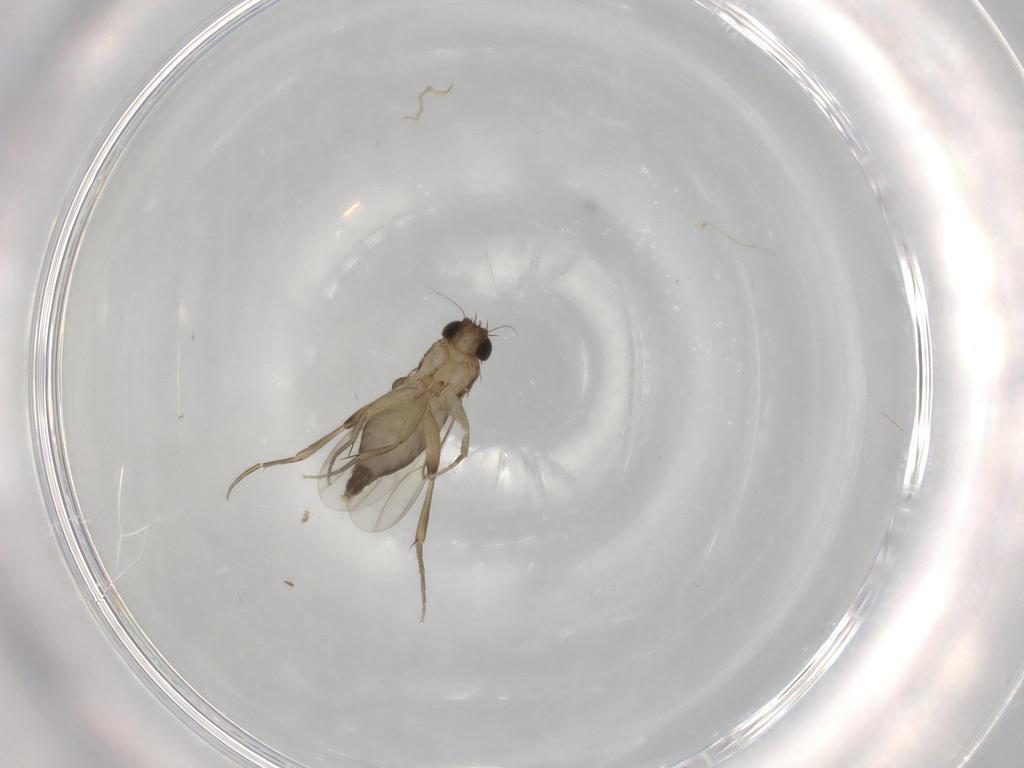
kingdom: Animalia
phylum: Arthropoda
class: Insecta
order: Diptera
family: Phoridae
